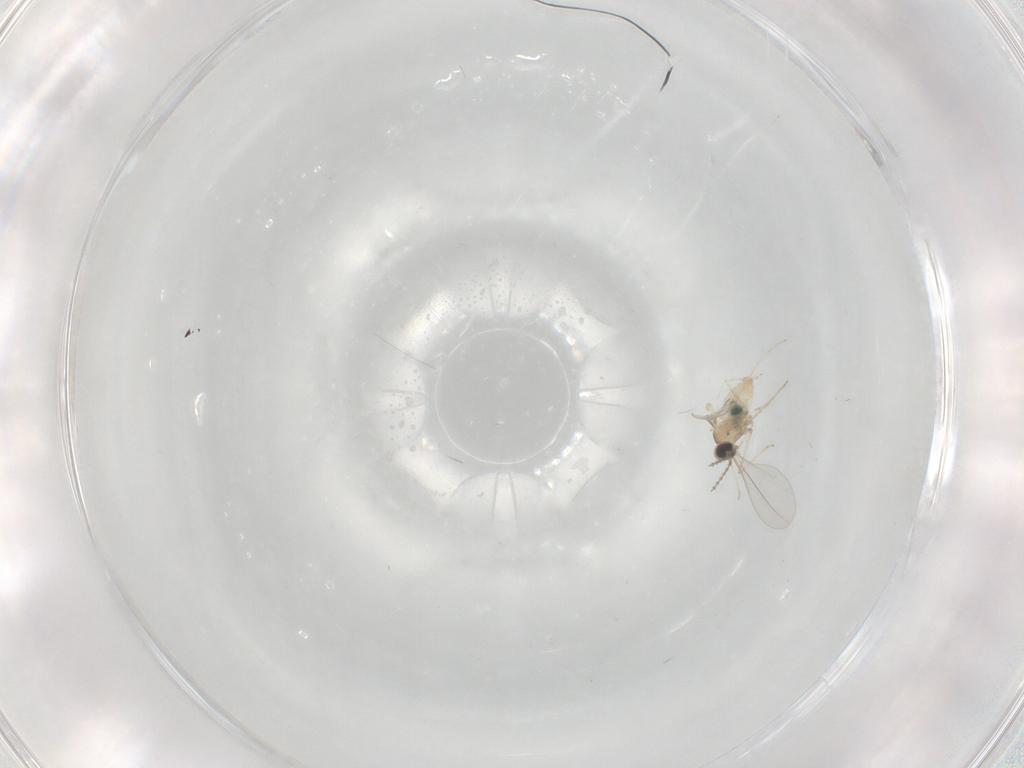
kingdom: Animalia
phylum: Arthropoda
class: Insecta
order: Diptera
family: Cecidomyiidae
